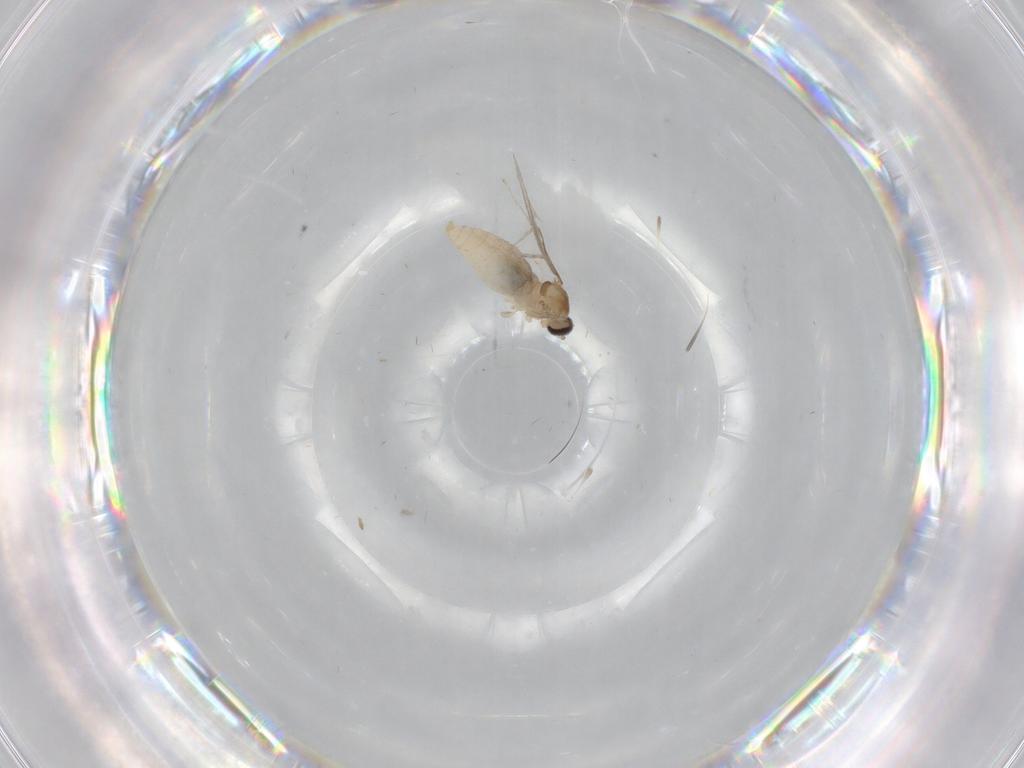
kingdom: Animalia
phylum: Arthropoda
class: Insecta
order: Diptera
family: Cecidomyiidae
